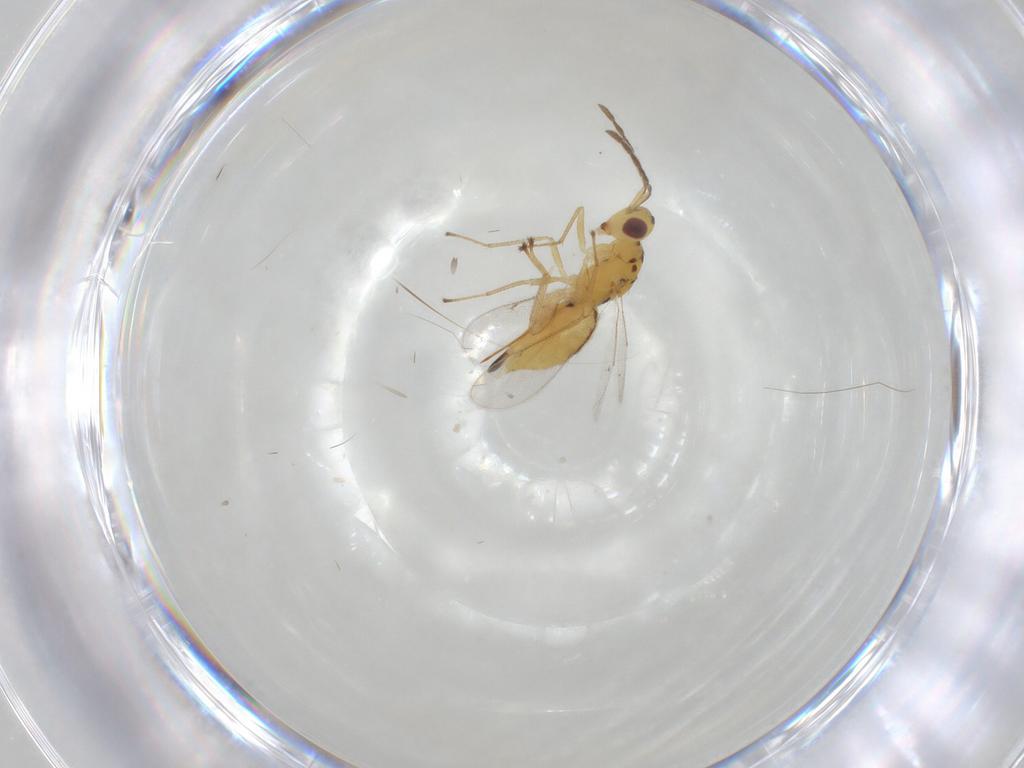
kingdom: Animalia
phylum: Arthropoda
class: Insecta
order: Hymenoptera
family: Eulophidae
